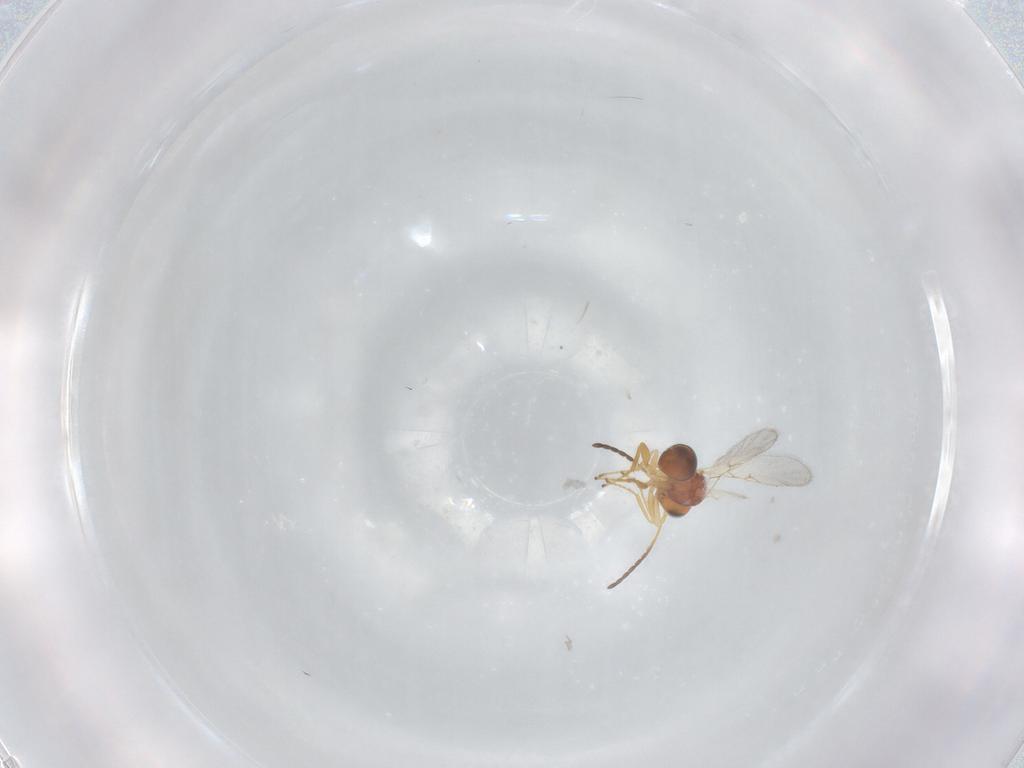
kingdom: Animalia
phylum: Arthropoda
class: Insecta
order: Hymenoptera
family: Figitidae
